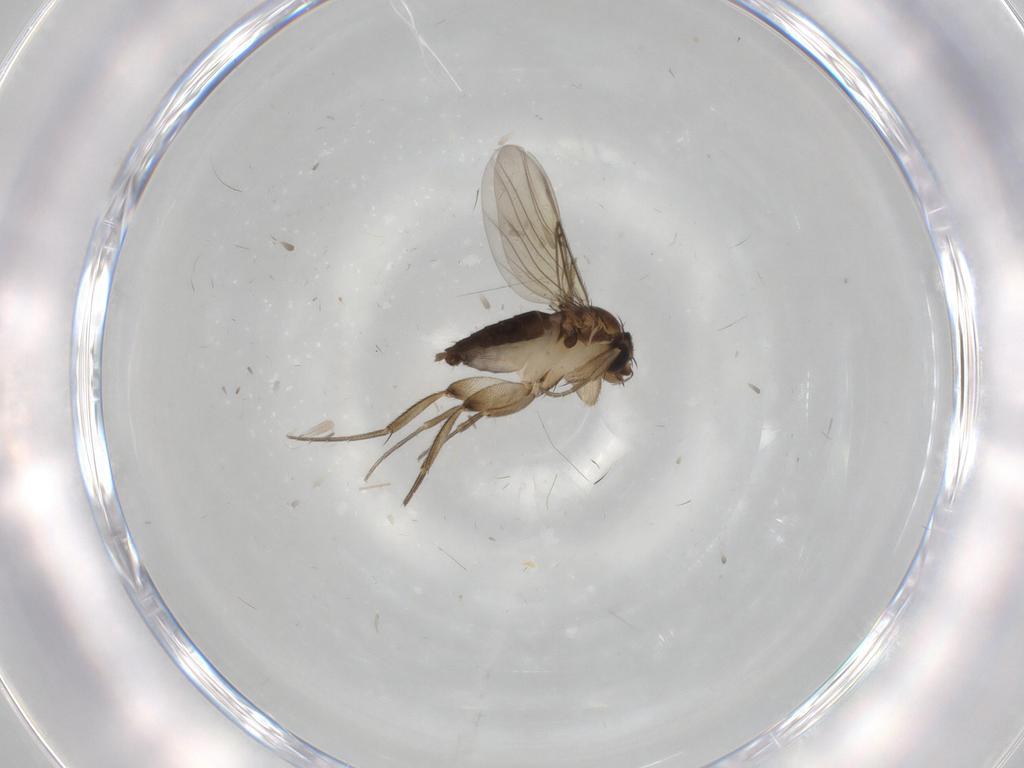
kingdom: Animalia
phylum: Arthropoda
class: Insecta
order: Diptera
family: Phoridae
